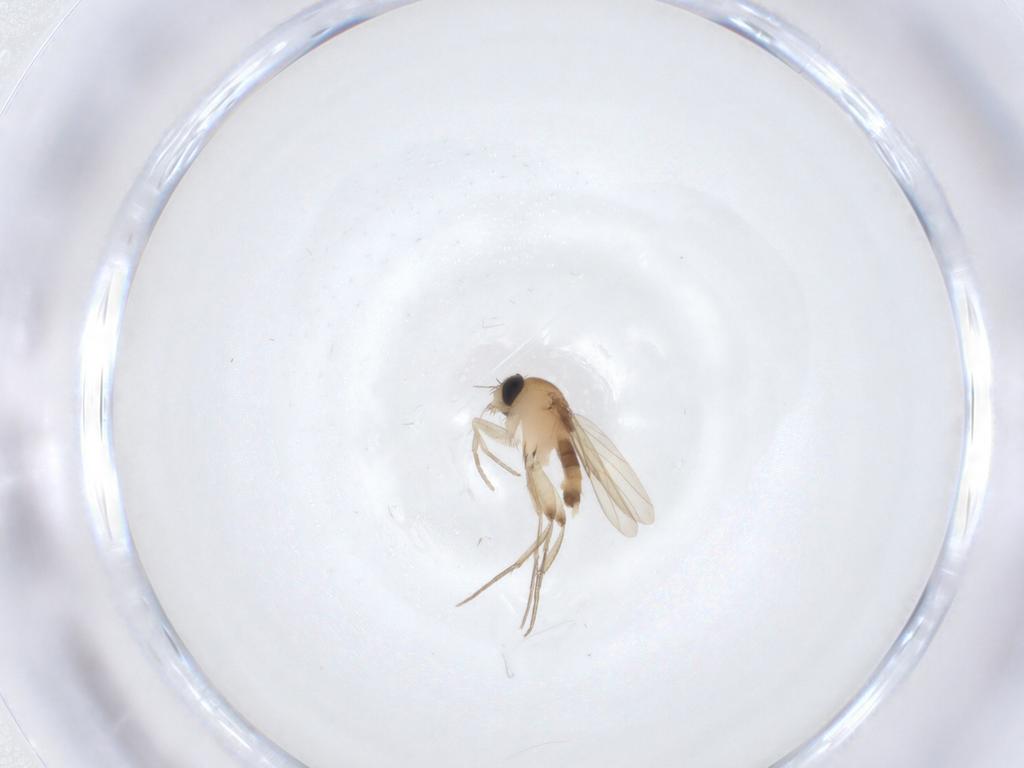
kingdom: Animalia
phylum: Arthropoda
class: Insecta
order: Diptera
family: Phoridae
